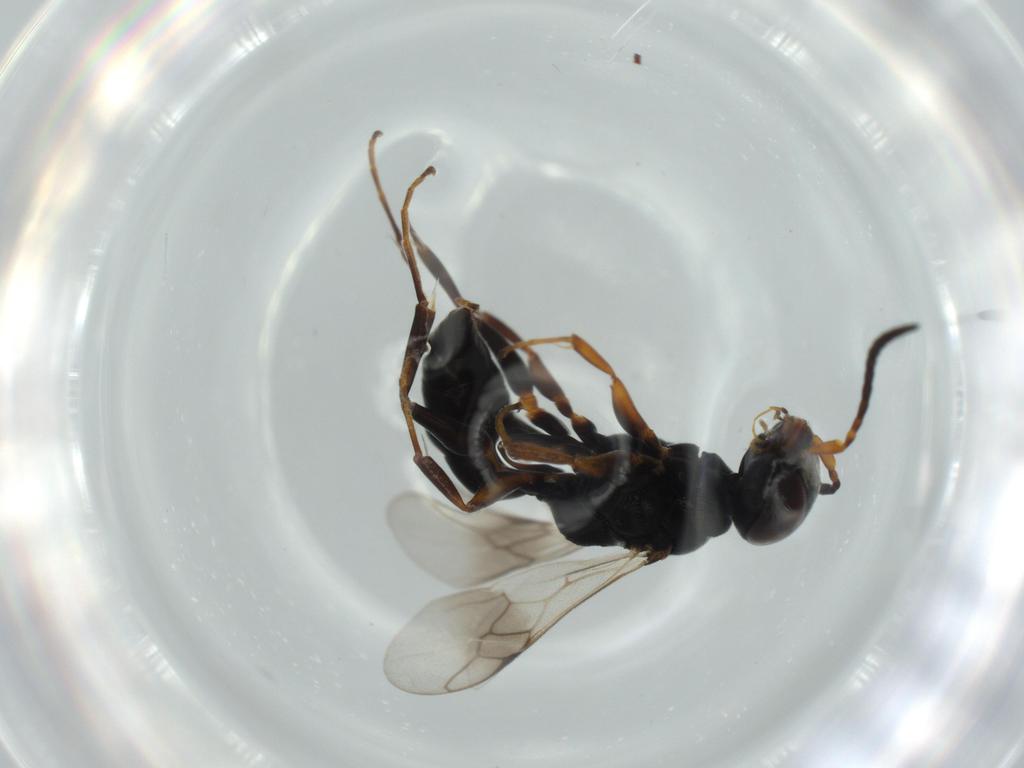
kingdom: Animalia
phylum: Arthropoda
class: Insecta
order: Hymenoptera
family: Crabronidae
